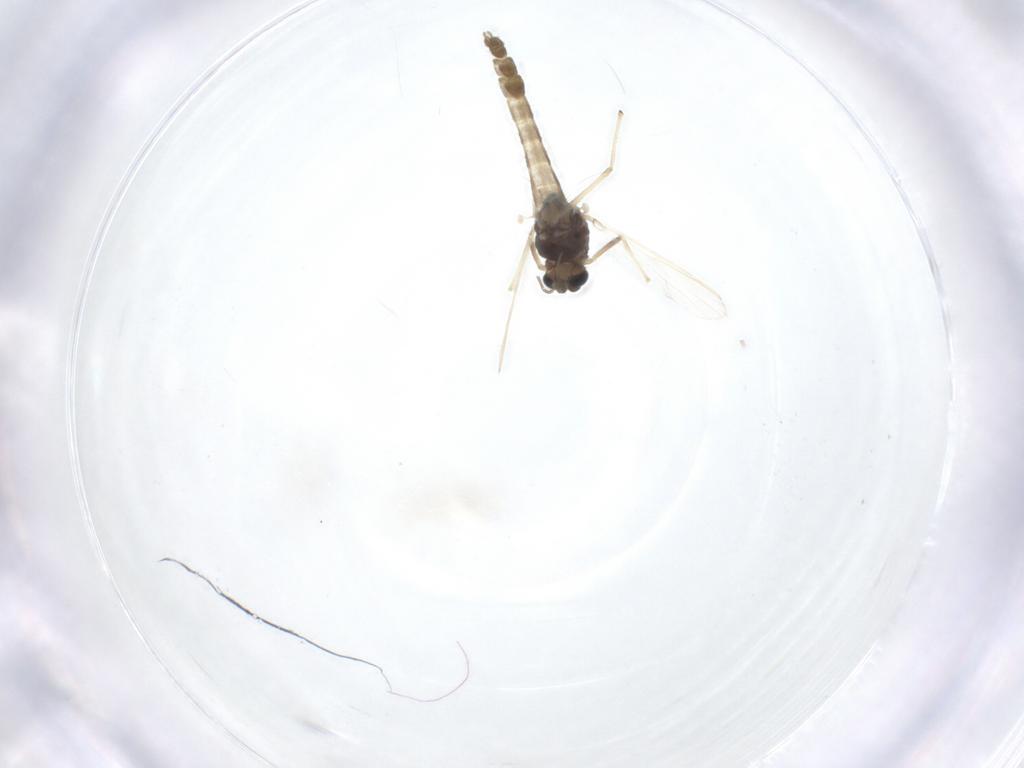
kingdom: Animalia
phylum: Arthropoda
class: Insecta
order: Diptera
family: Chironomidae
